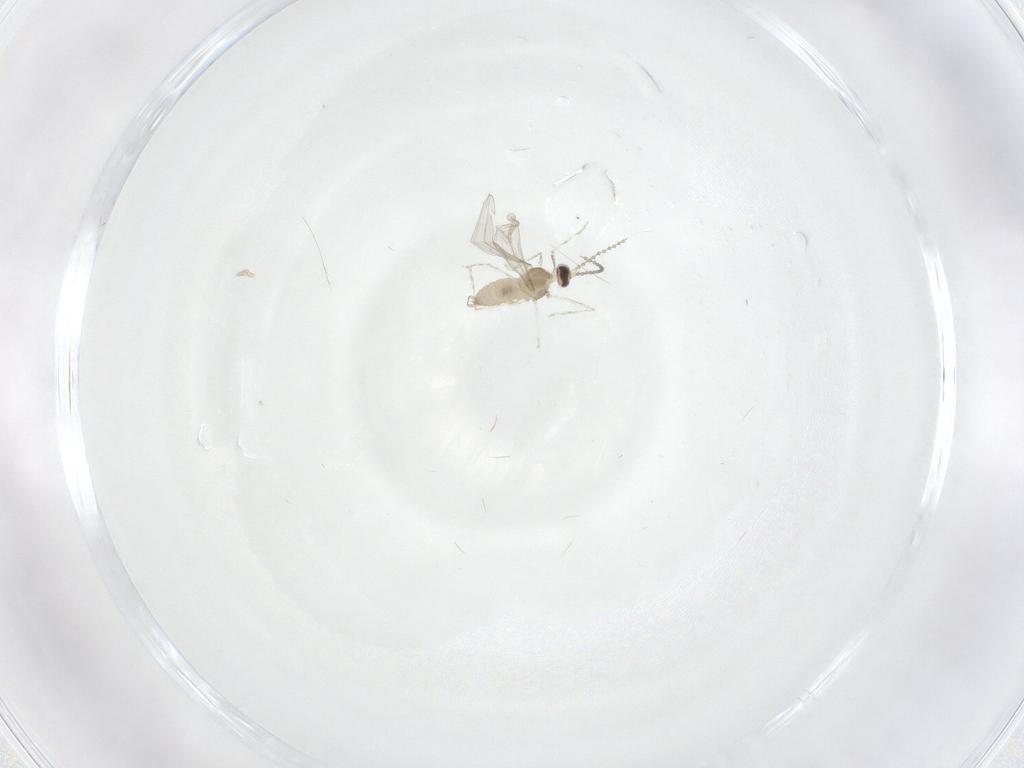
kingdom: Animalia
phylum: Arthropoda
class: Insecta
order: Diptera
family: Cecidomyiidae
